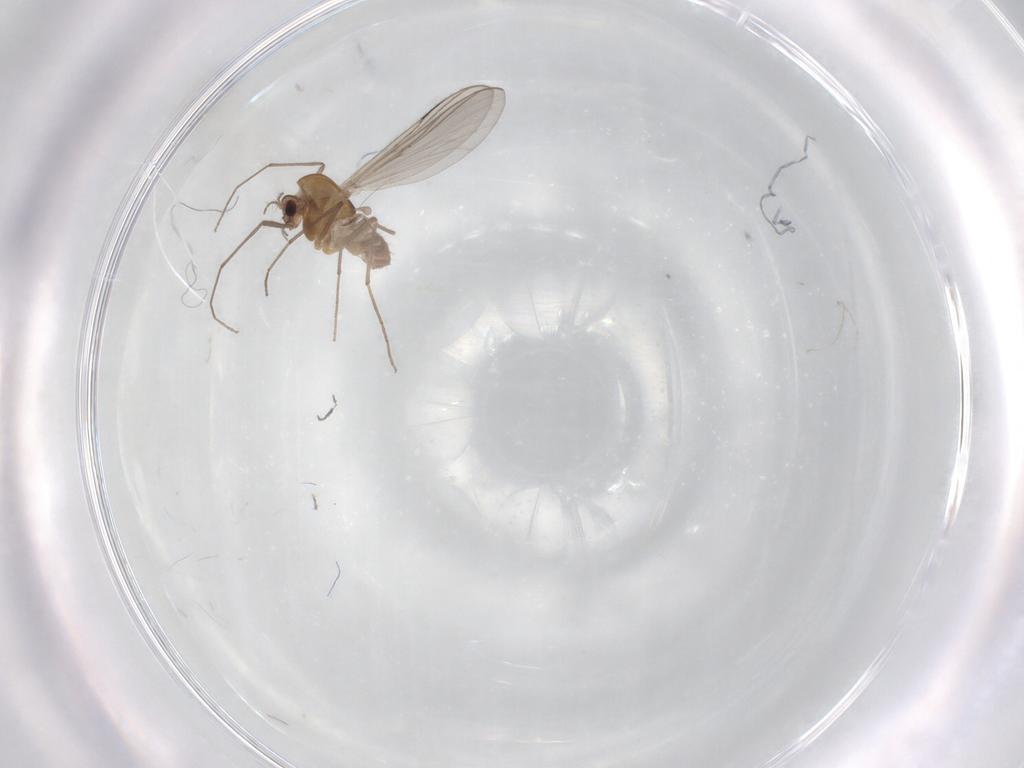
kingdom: Animalia
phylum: Arthropoda
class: Insecta
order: Diptera
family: Chironomidae
